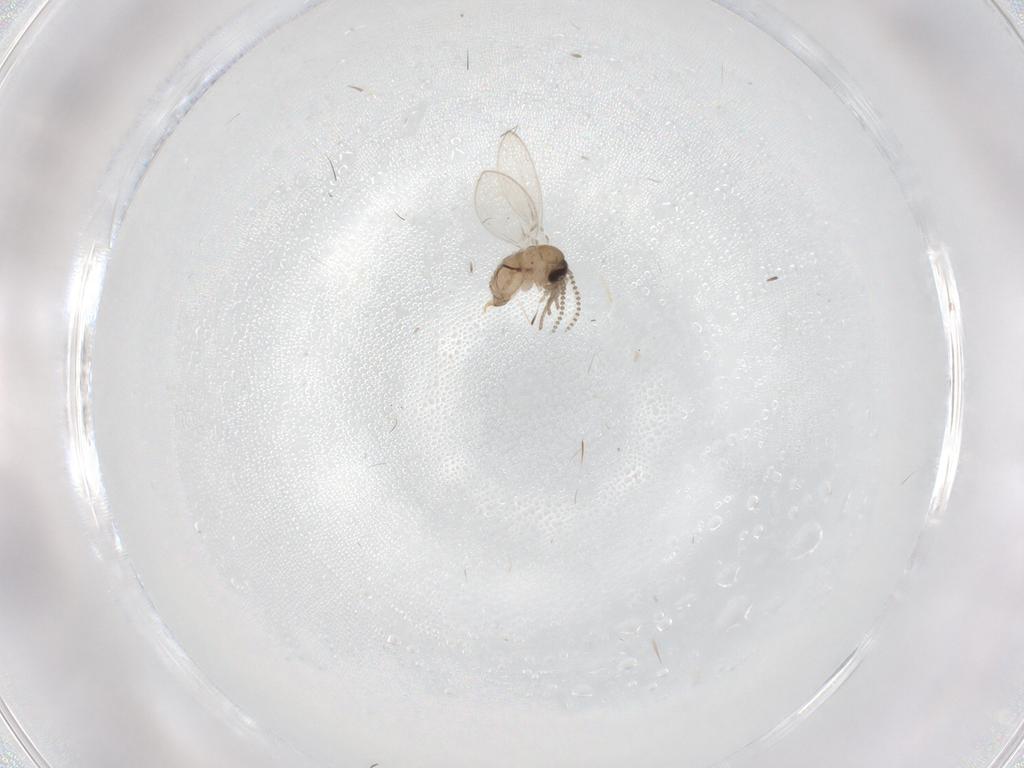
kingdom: Animalia
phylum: Arthropoda
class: Insecta
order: Diptera
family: Psychodidae
